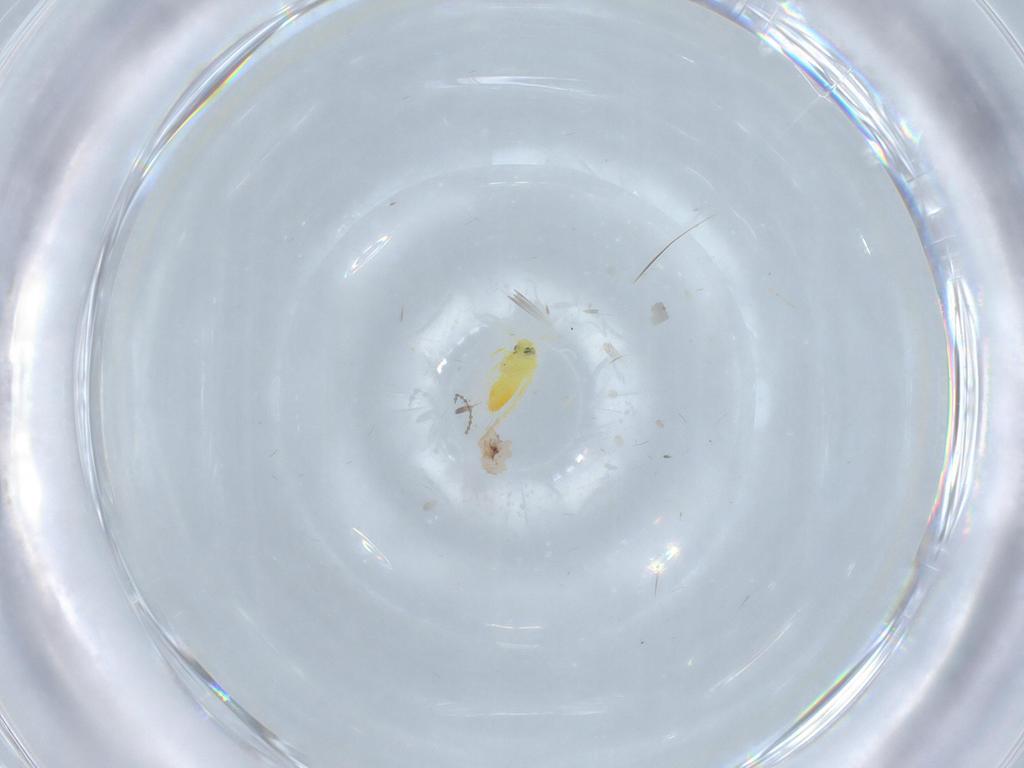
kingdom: Animalia
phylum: Arthropoda
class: Insecta
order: Hemiptera
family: Aleyrodidae
